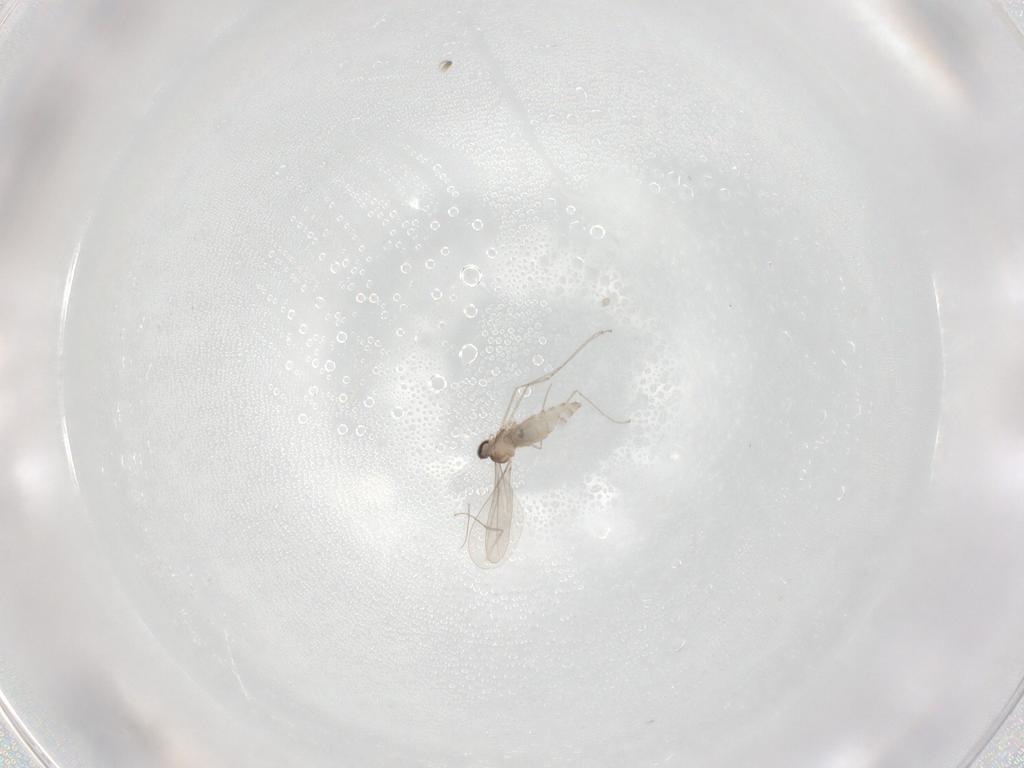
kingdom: Animalia
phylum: Arthropoda
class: Insecta
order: Diptera
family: Cecidomyiidae
